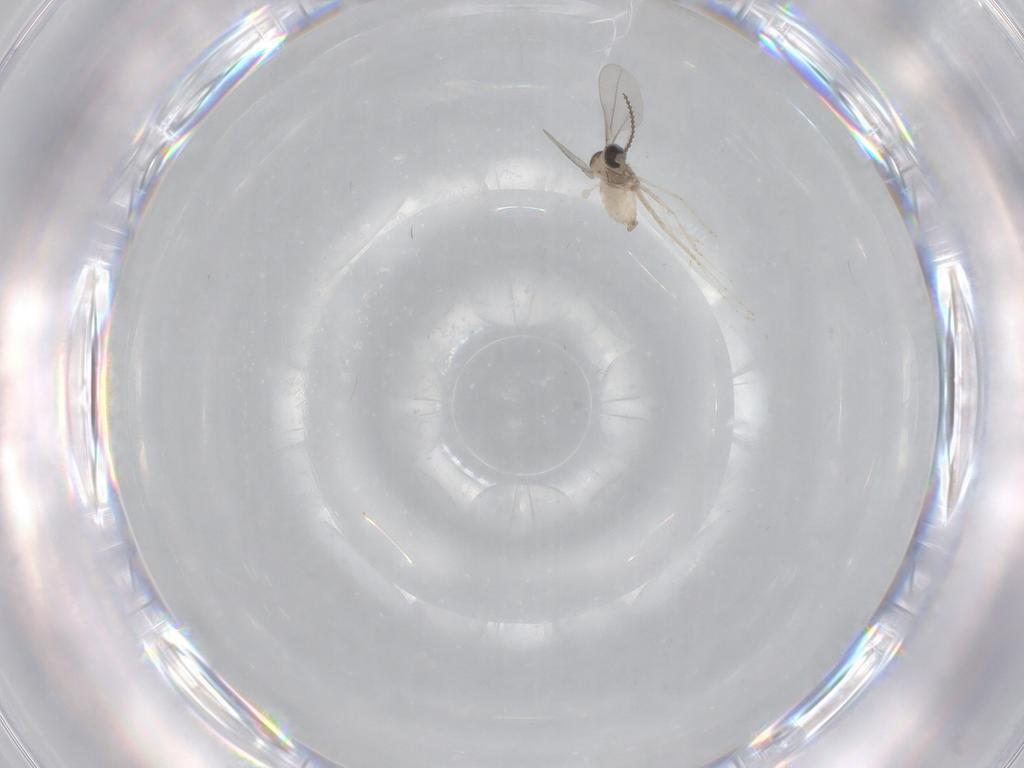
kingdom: Animalia
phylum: Arthropoda
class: Insecta
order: Diptera
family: Cecidomyiidae
